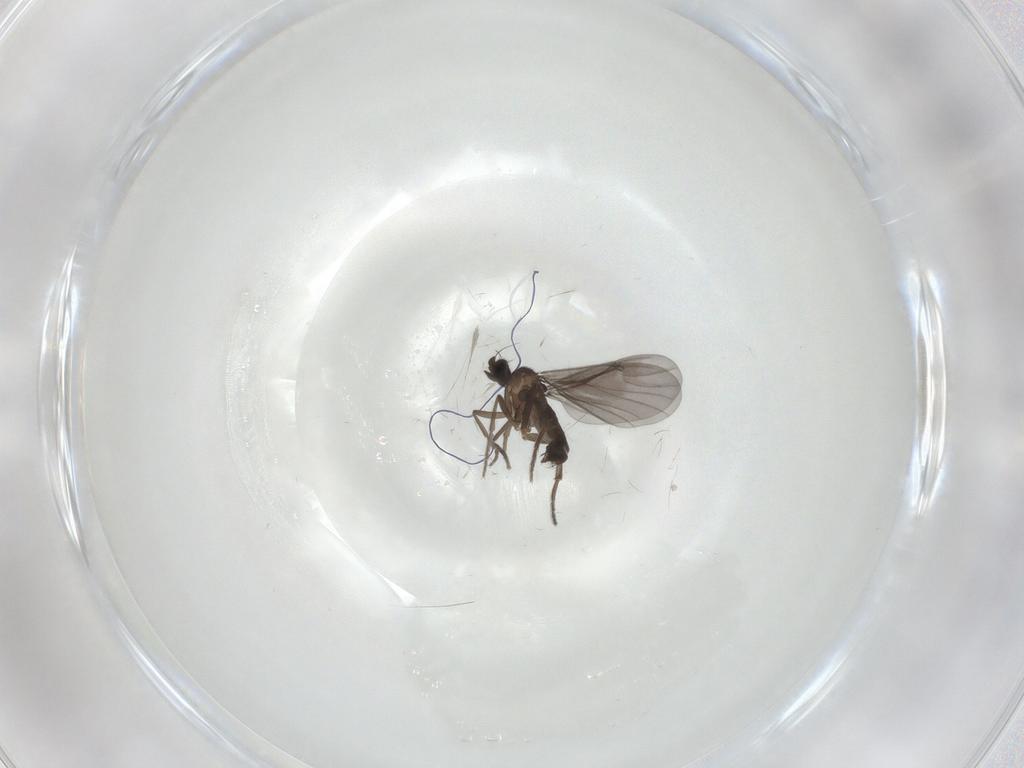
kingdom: Animalia
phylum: Arthropoda
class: Insecta
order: Diptera
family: Phoridae
